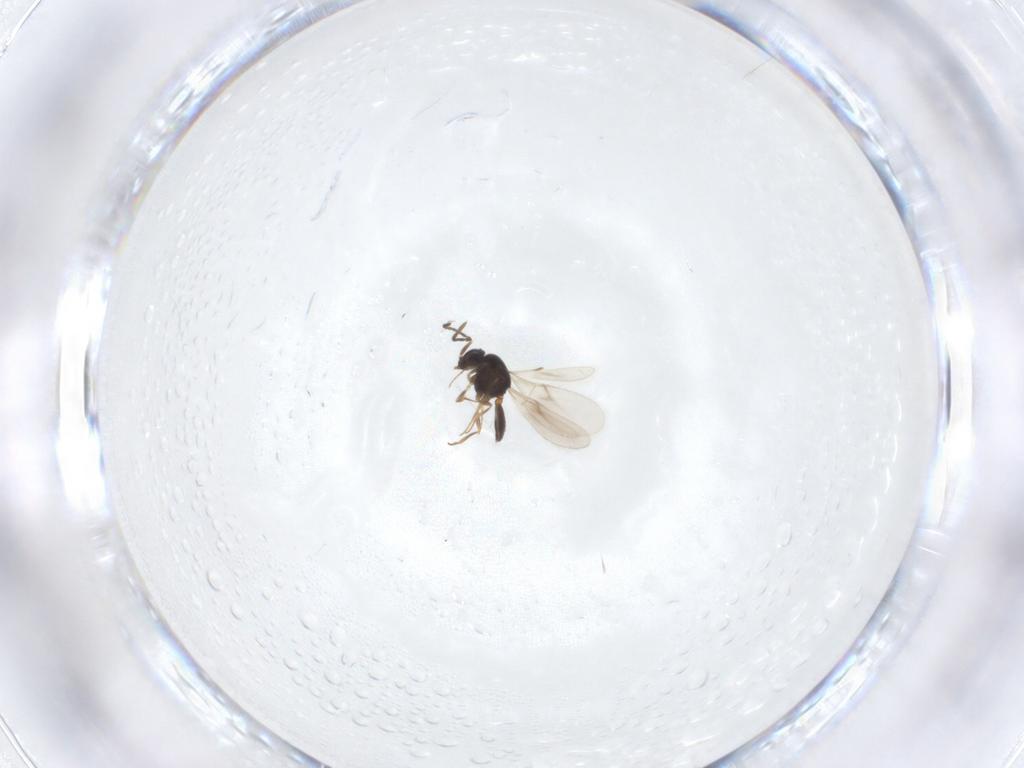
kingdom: Animalia
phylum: Arthropoda
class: Insecta
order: Hymenoptera
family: Scelionidae
